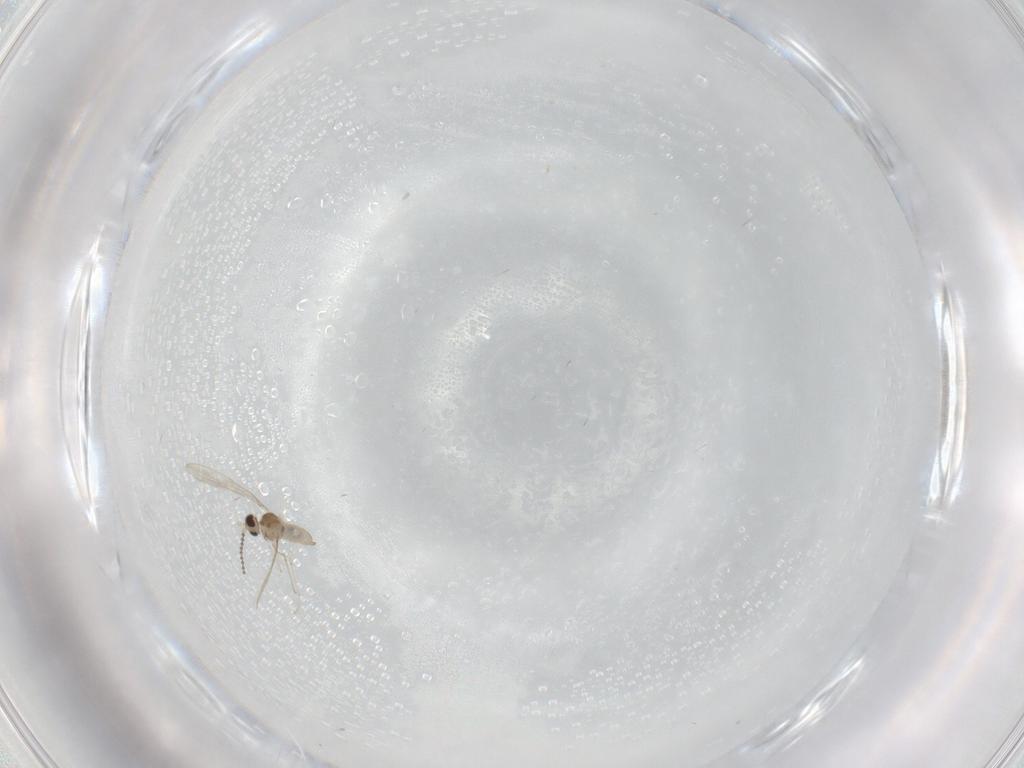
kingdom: Animalia
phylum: Arthropoda
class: Insecta
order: Diptera
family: Cecidomyiidae
